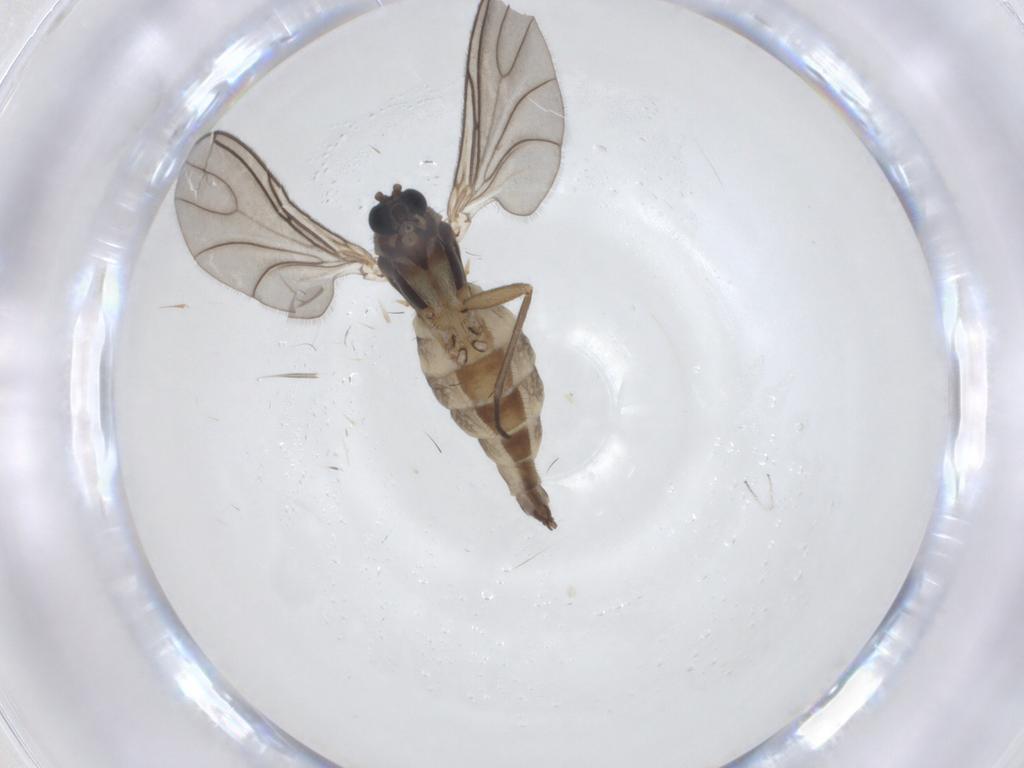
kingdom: Animalia
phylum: Arthropoda
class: Insecta
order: Diptera
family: Sciaridae
